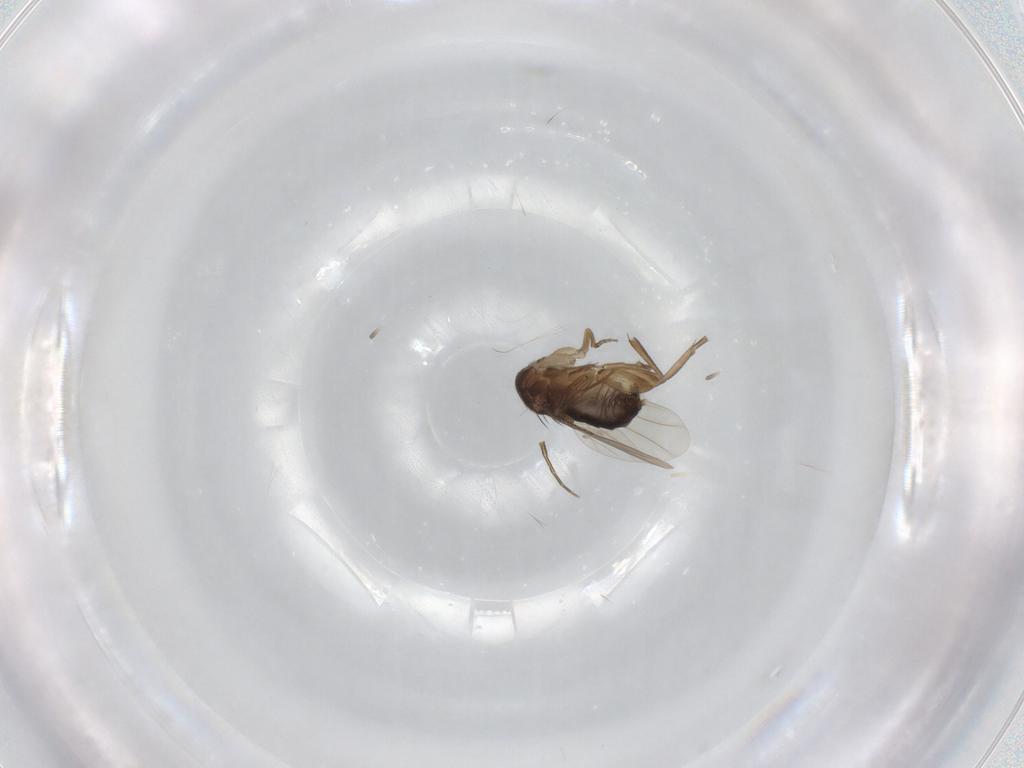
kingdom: Animalia
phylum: Arthropoda
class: Insecta
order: Diptera
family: Phoridae
